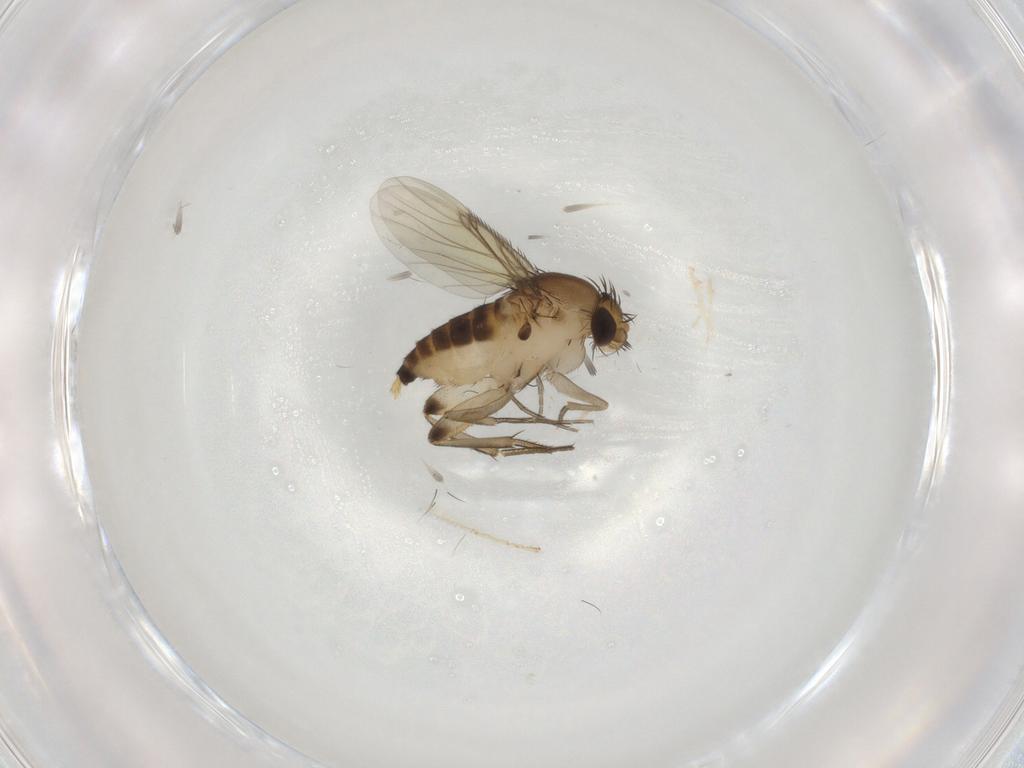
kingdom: Animalia
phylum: Arthropoda
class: Insecta
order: Diptera
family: Limoniidae
